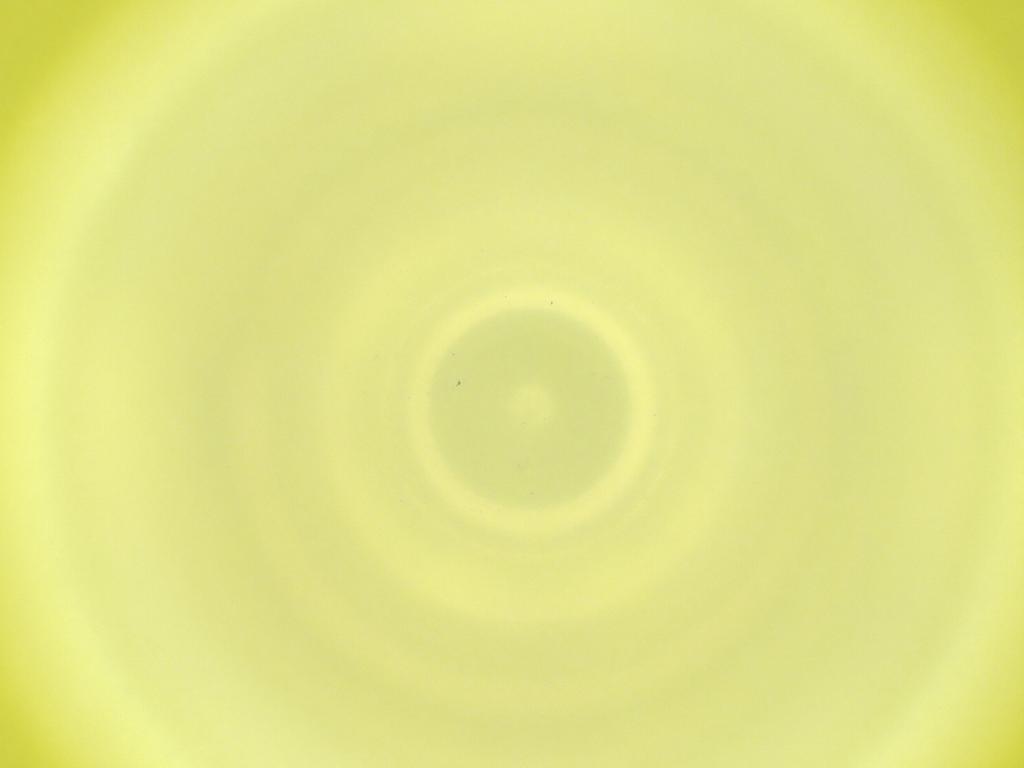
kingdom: Animalia
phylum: Arthropoda
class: Insecta
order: Diptera
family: Cecidomyiidae
